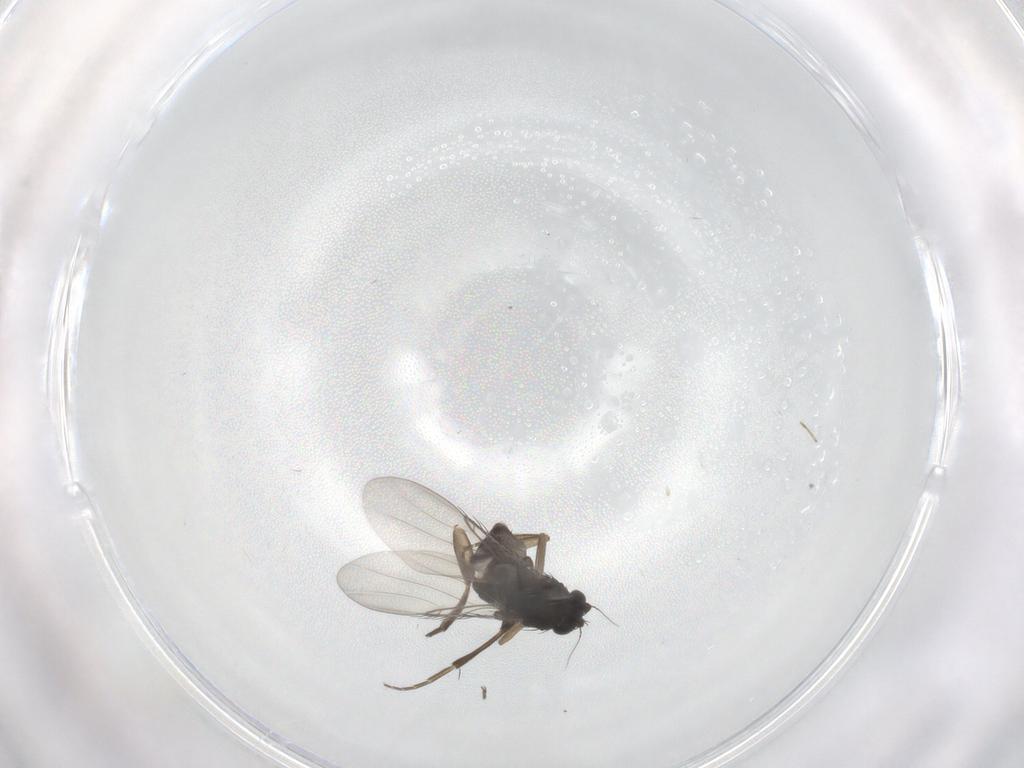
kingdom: Animalia
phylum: Arthropoda
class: Insecta
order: Diptera
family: Phoridae
